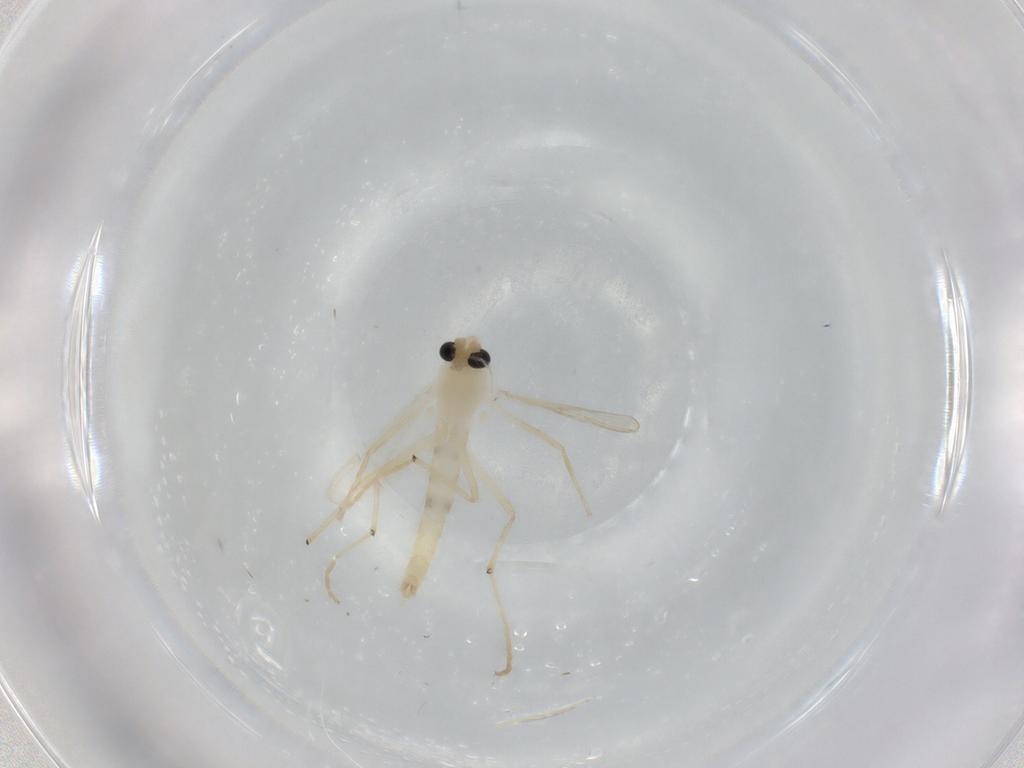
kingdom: Animalia
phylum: Arthropoda
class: Insecta
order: Diptera
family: Chironomidae
